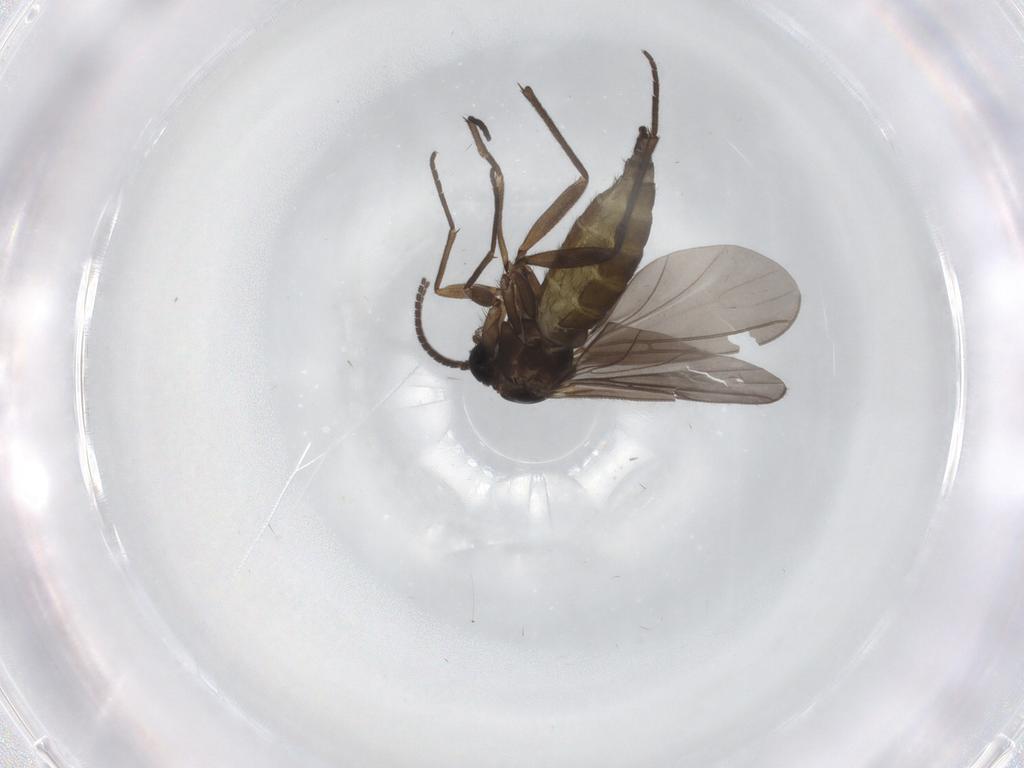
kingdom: Animalia
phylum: Arthropoda
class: Insecta
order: Diptera
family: Sciaridae
